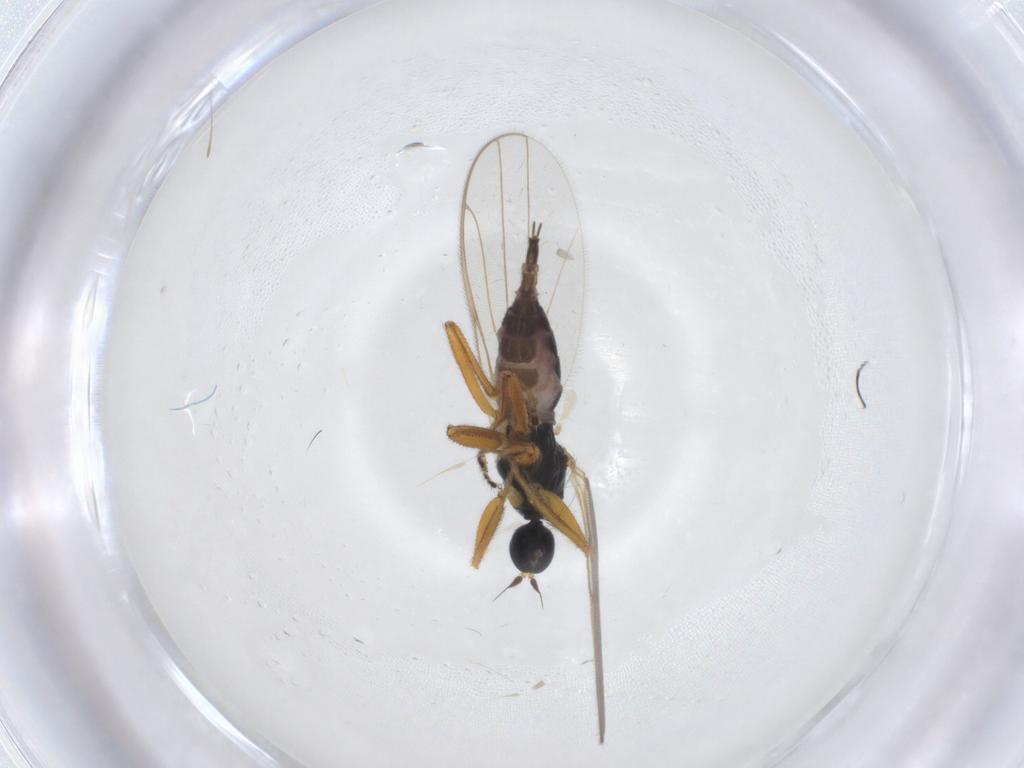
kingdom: Animalia
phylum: Arthropoda
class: Insecta
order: Diptera
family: Hybotidae
